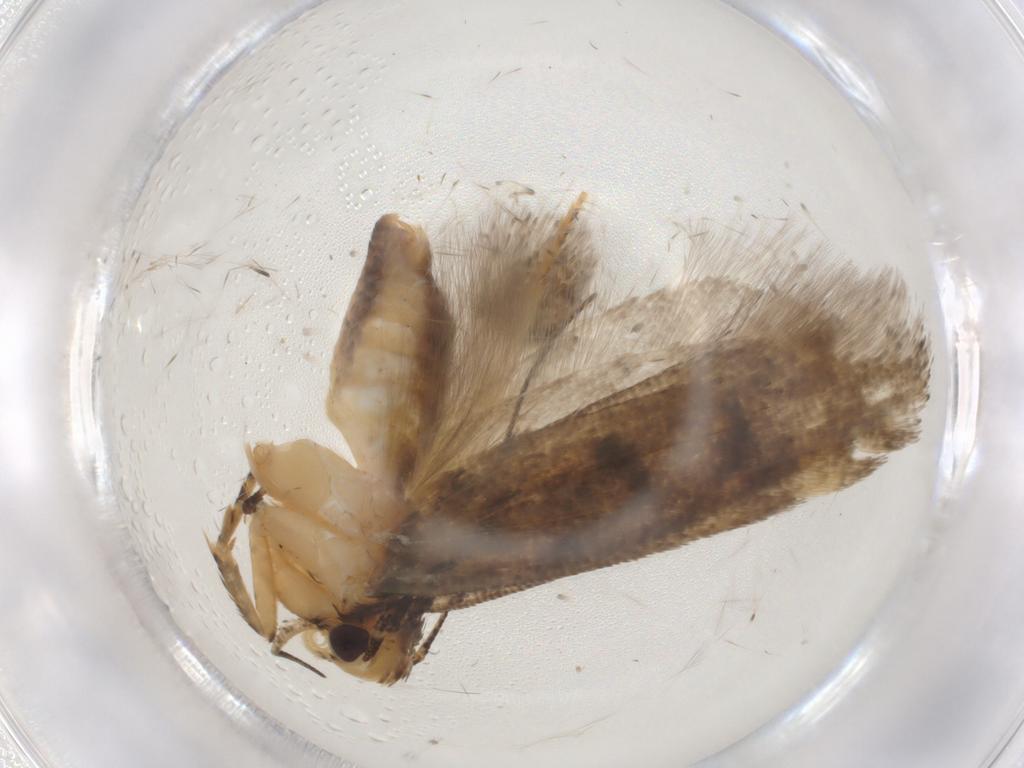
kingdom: Animalia
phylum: Arthropoda
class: Insecta
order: Lepidoptera
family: Gelechiidae
